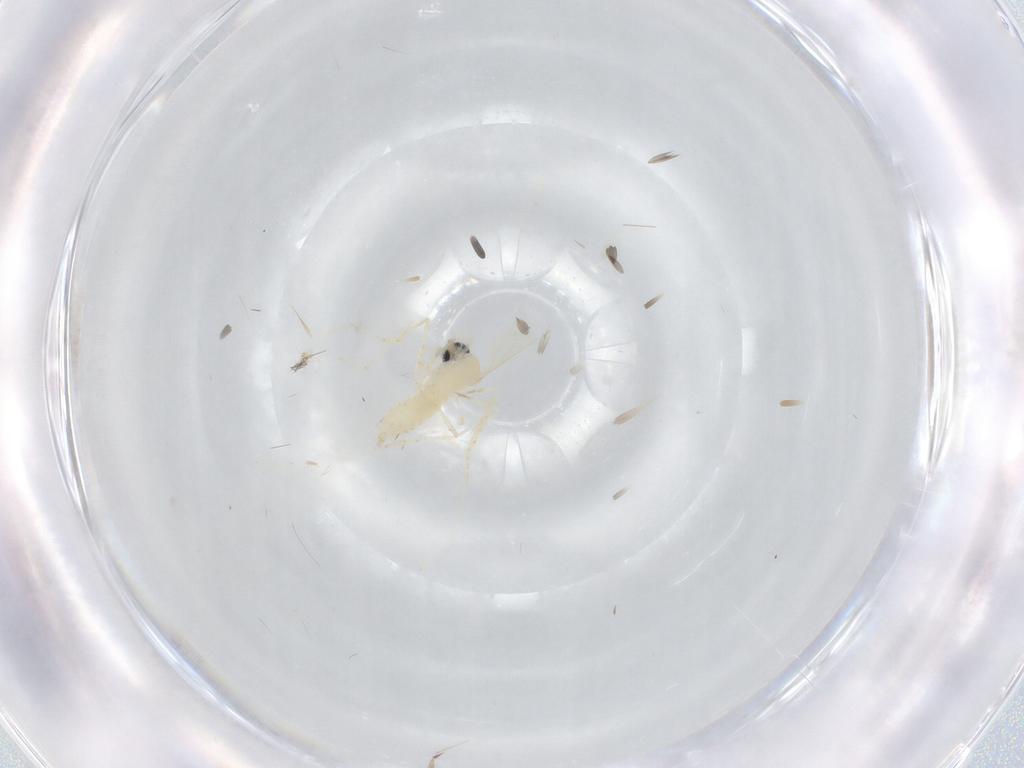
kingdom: Animalia
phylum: Arthropoda
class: Insecta
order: Diptera
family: Cecidomyiidae
